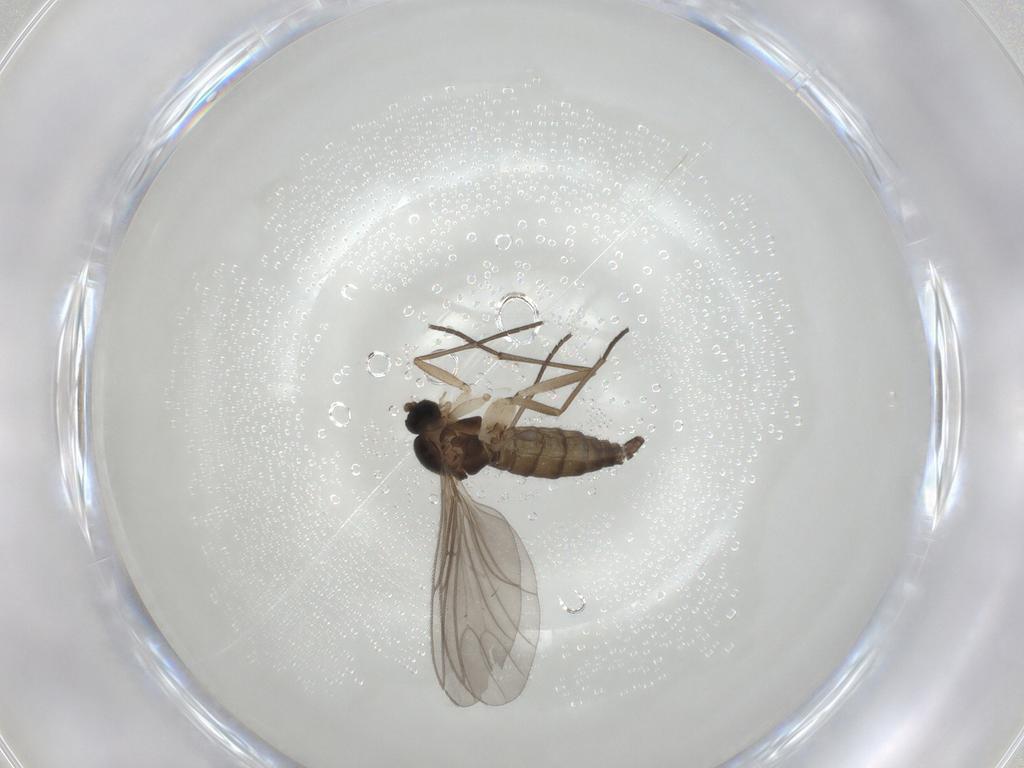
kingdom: Animalia
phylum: Arthropoda
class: Insecta
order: Diptera
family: Sciaridae
